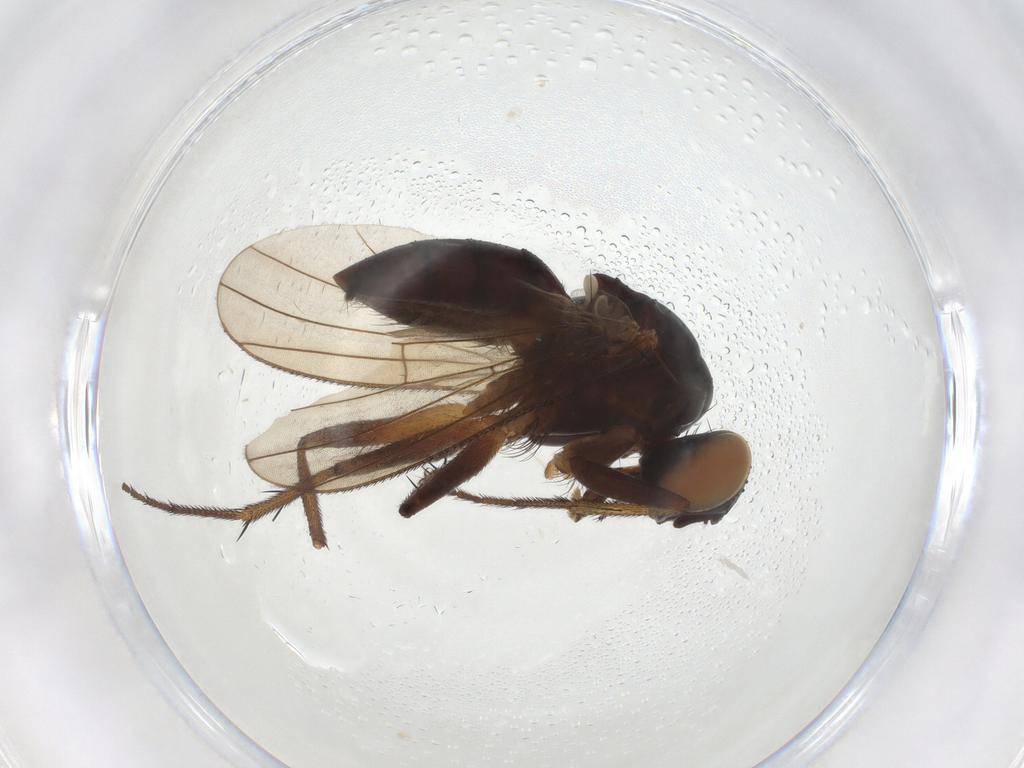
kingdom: Animalia
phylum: Arthropoda
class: Insecta
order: Diptera
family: Muscidae
